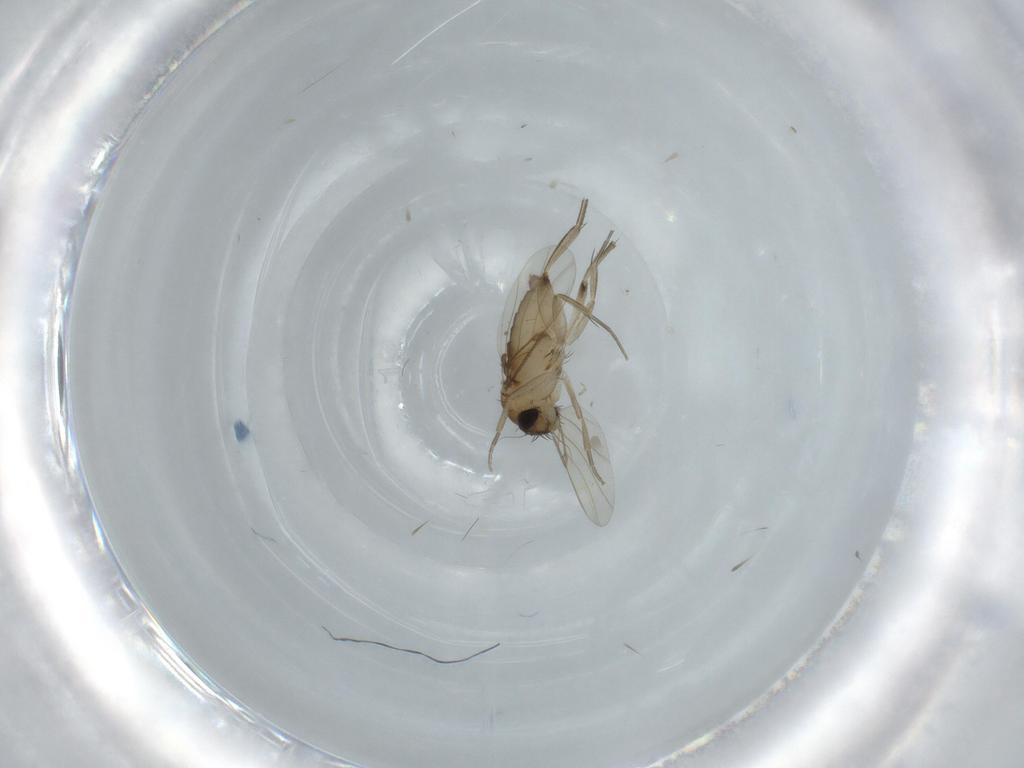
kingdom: Animalia
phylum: Arthropoda
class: Insecta
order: Diptera
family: Phoridae
